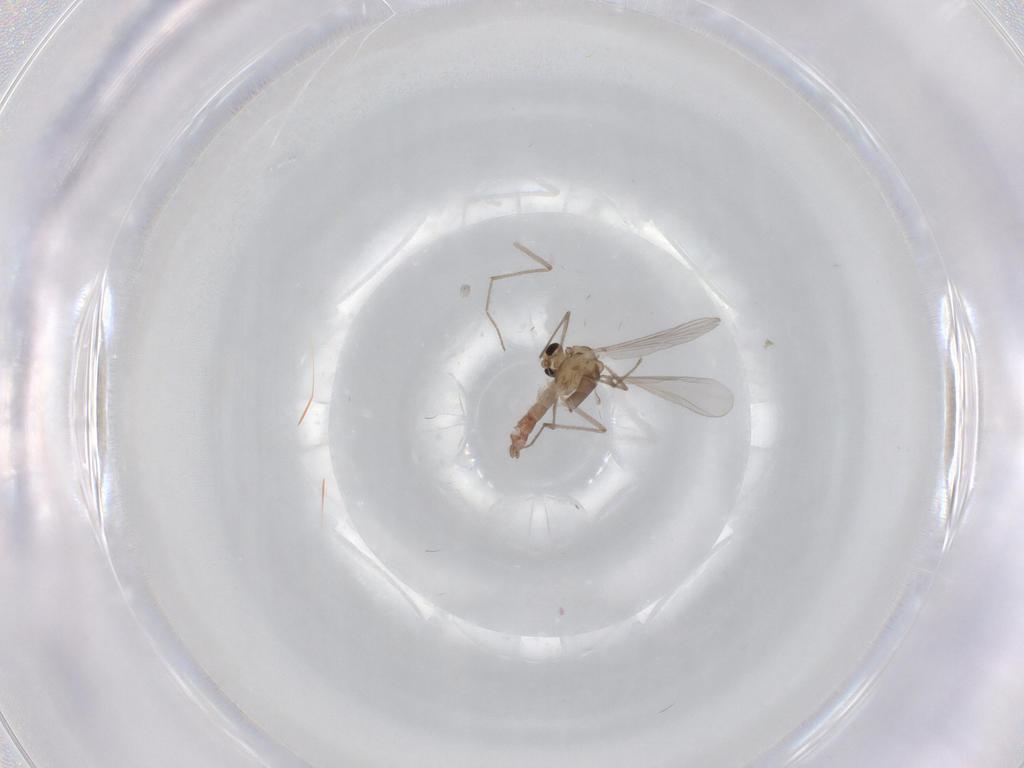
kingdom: Animalia
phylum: Arthropoda
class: Insecta
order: Diptera
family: Chironomidae
